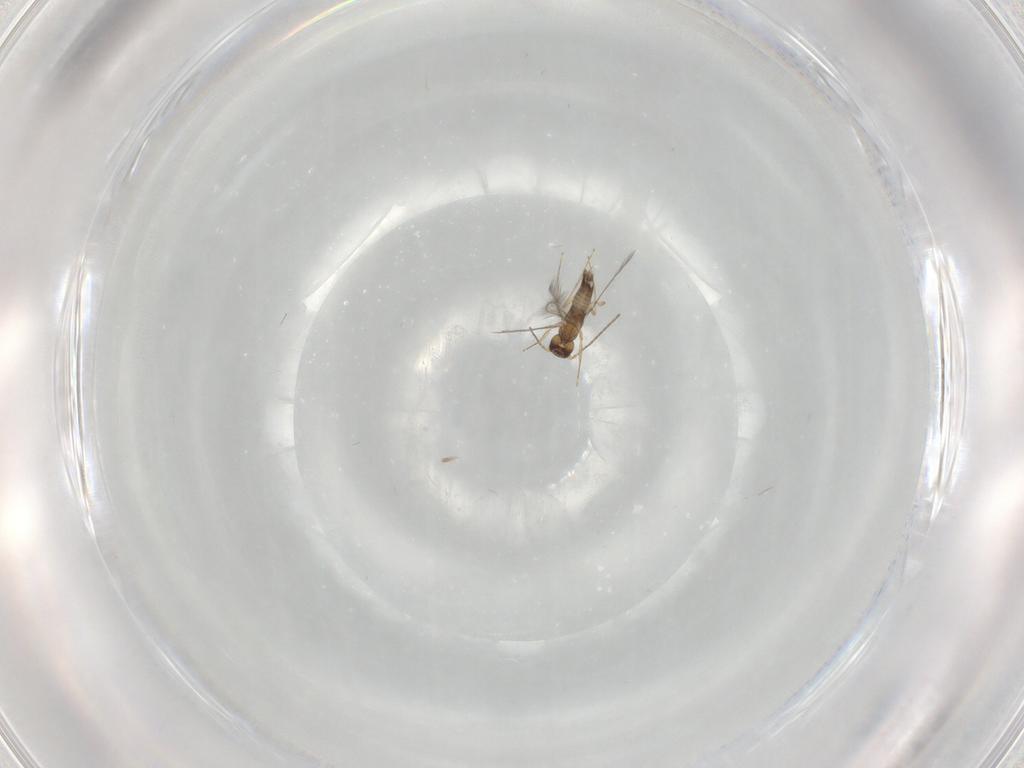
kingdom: Animalia
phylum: Arthropoda
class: Insecta
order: Hymenoptera
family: Mymaridae
